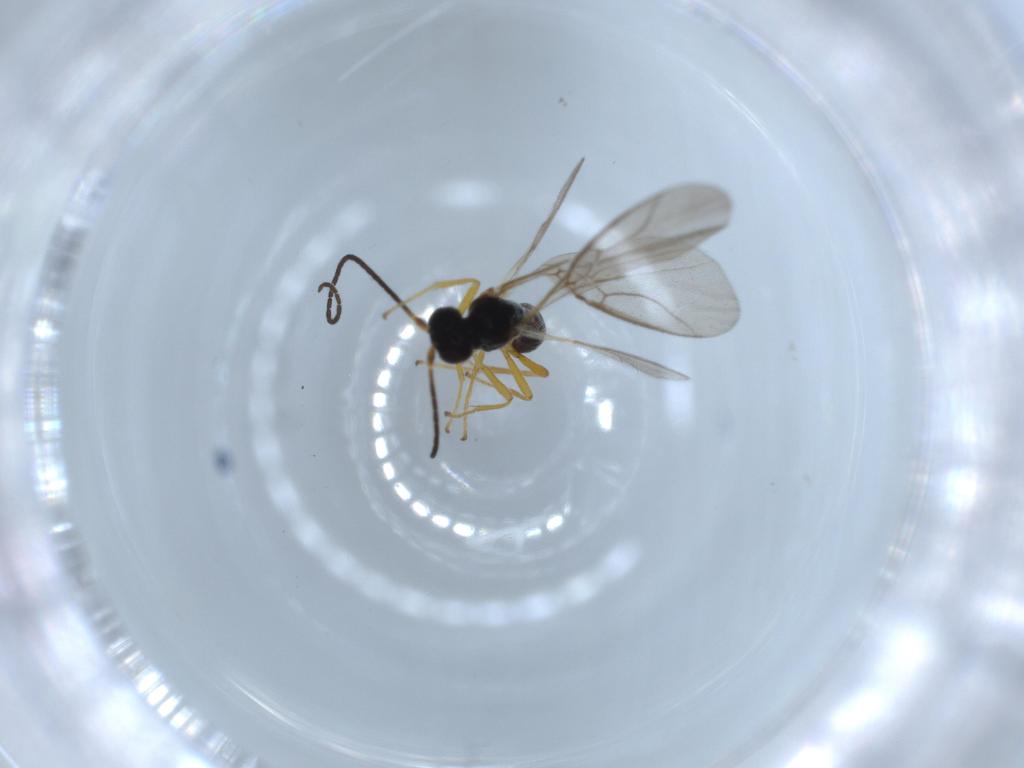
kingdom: Animalia
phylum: Arthropoda
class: Insecta
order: Hymenoptera
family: Braconidae
